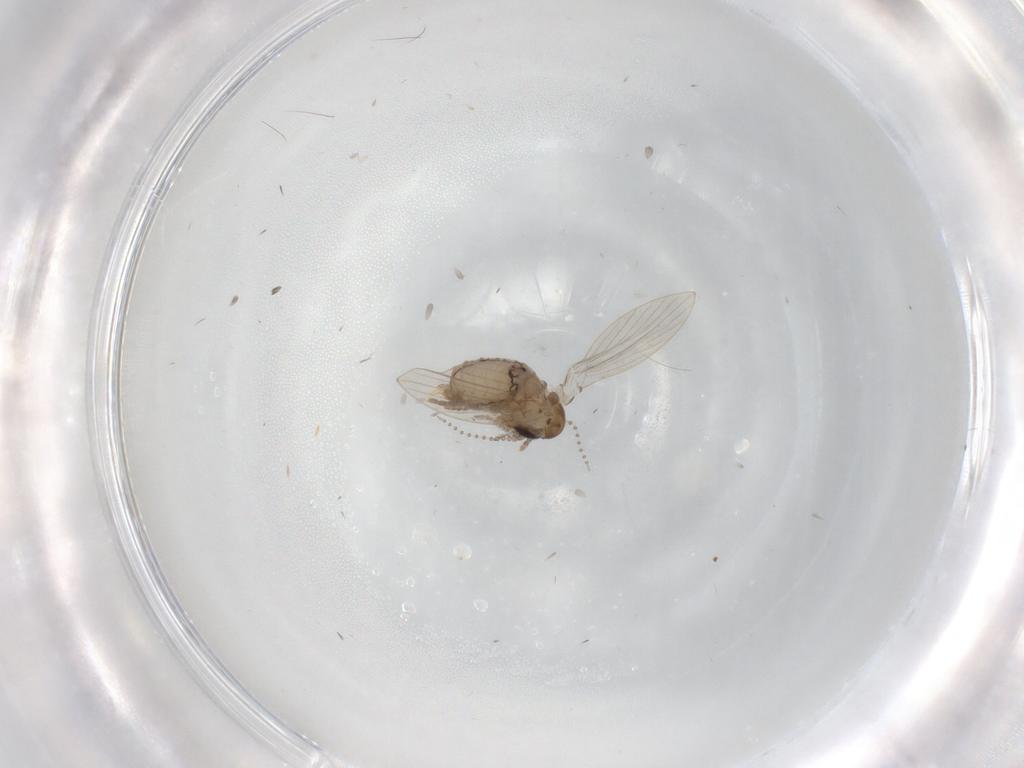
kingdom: Animalia
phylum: Arthropoda
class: Insecta
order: Diptera
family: Psychodidae
